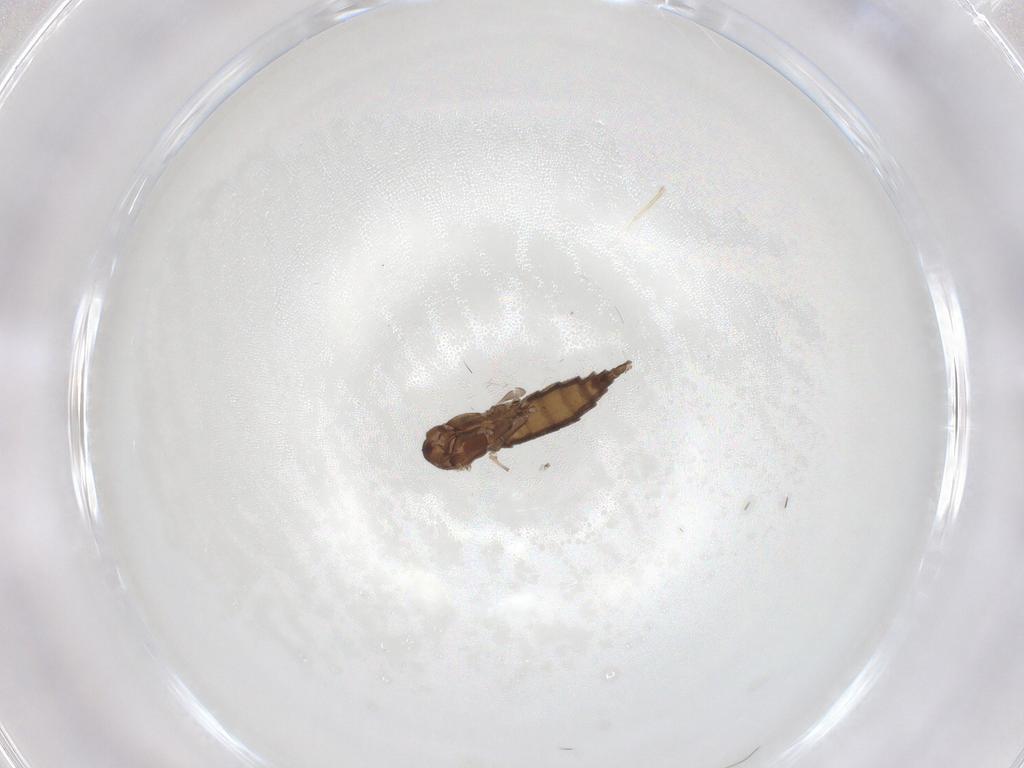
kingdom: Animalia
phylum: Arthropoda
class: Insecta
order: Diptera
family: Sciaridae
